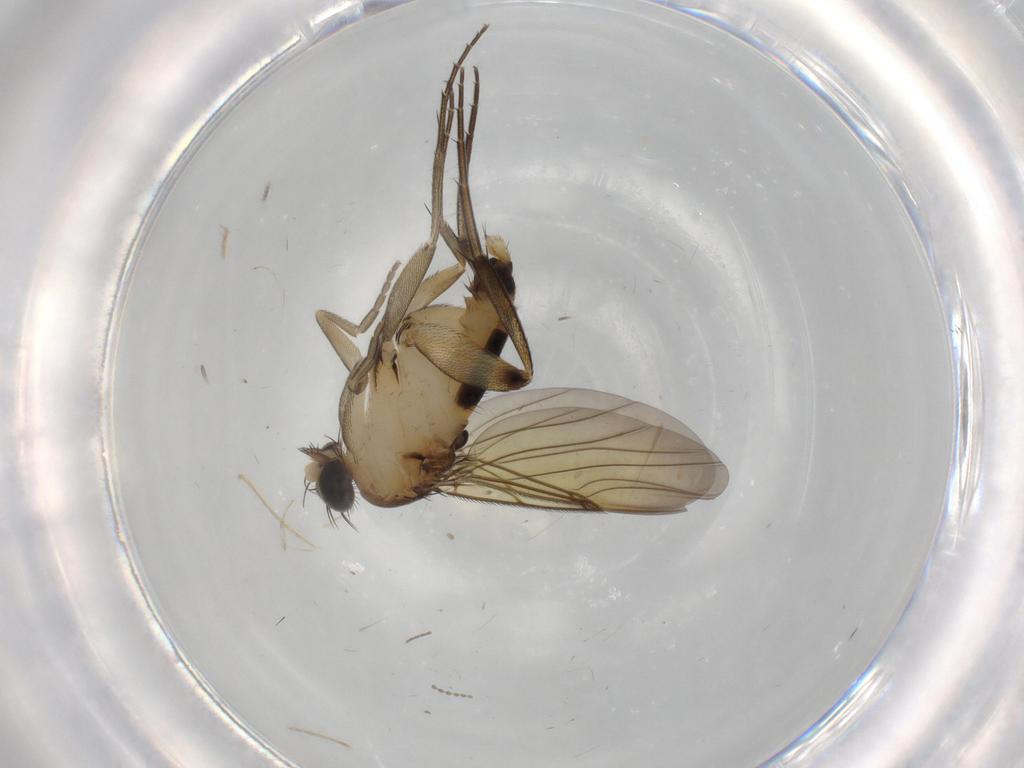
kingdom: Animalia
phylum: Arthropoda
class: Insecta
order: Diptera
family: Phoridae
